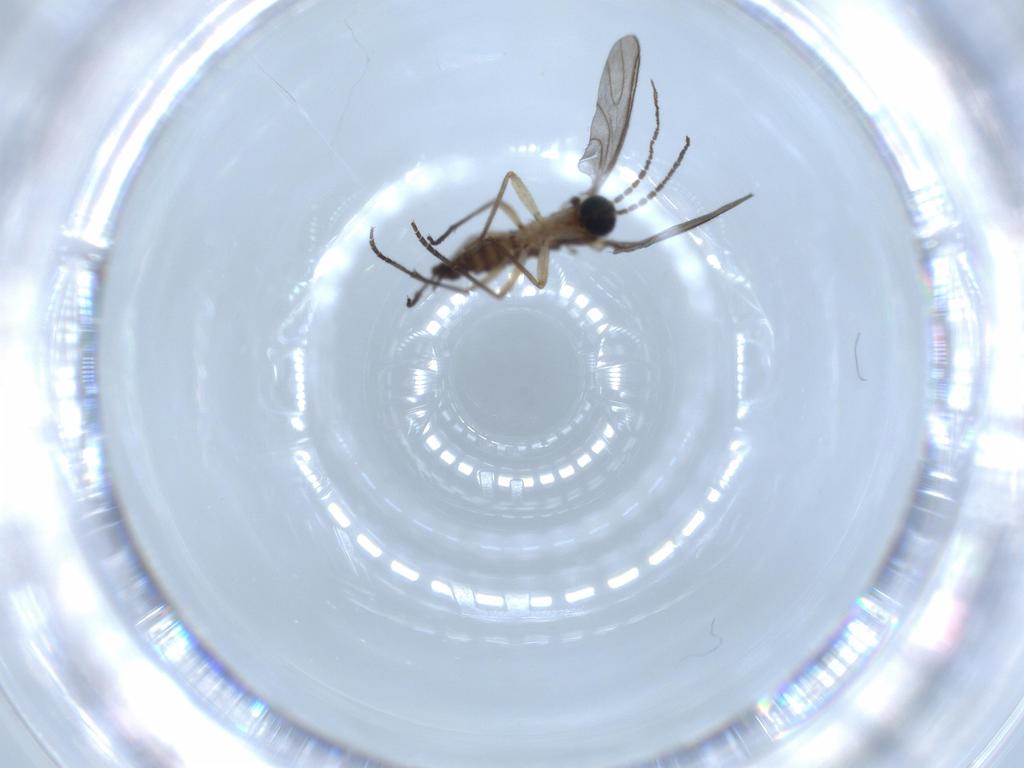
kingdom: Animalia
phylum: Arthropoda
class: Insecta
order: Diptera
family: Sciaridae
